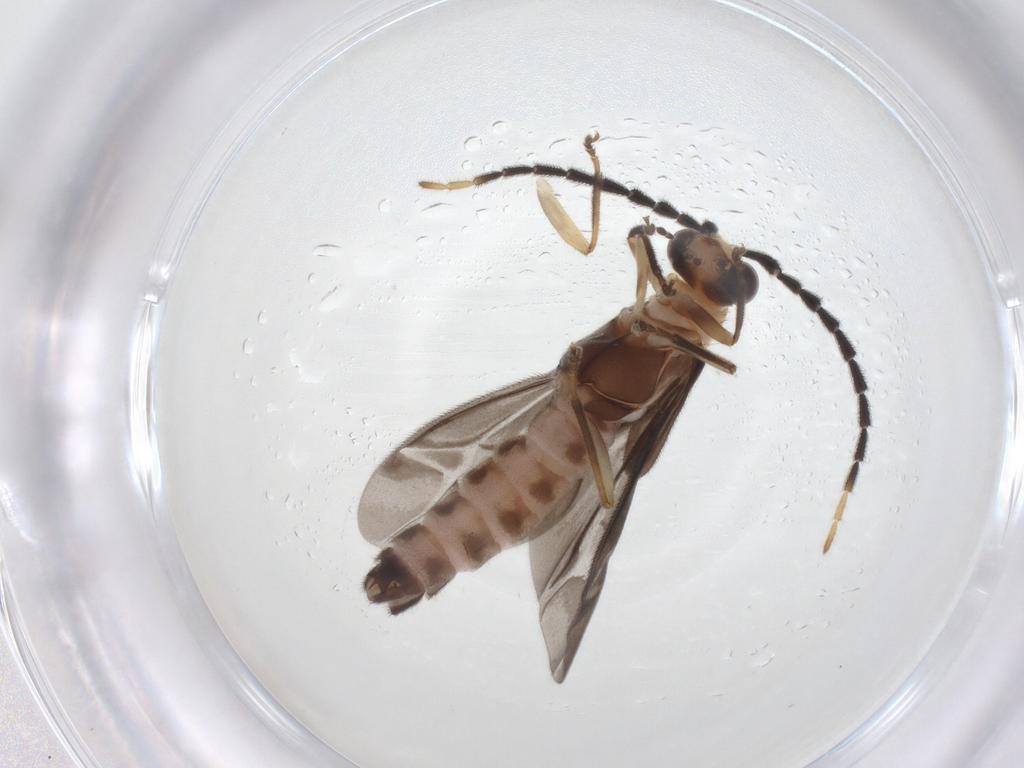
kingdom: Animalia
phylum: Arthropoda
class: Insecta
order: Coleoptera
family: Cantharidae
